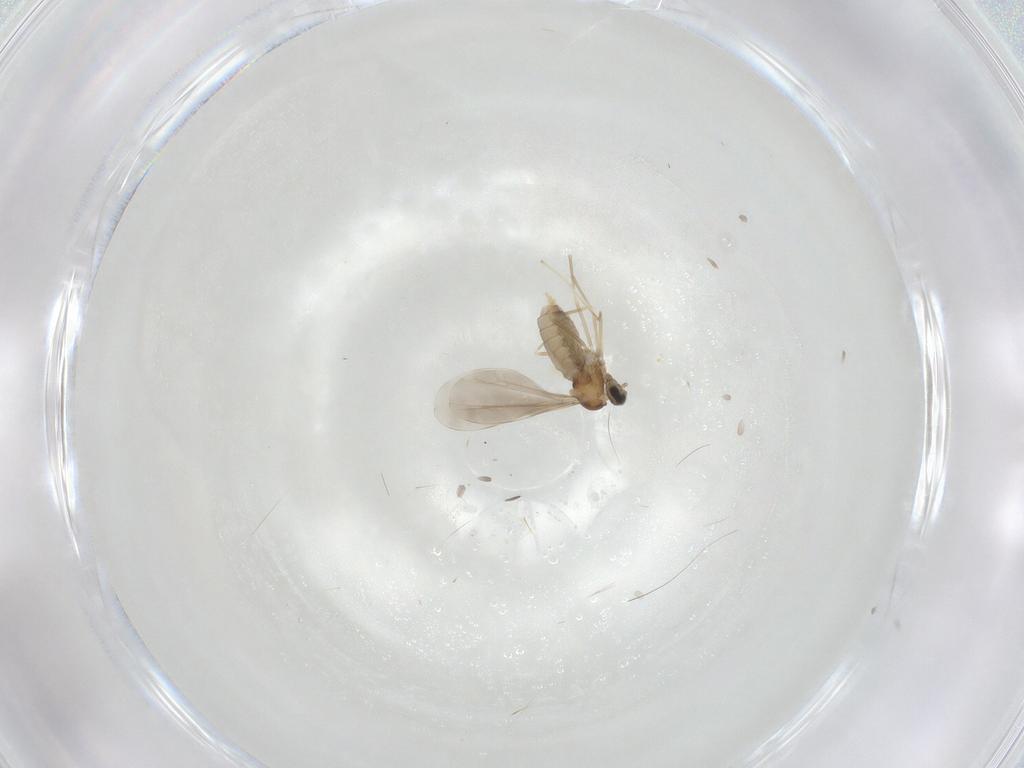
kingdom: Animalia
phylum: Arthropoda
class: Insecta
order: Diptera
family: Cecidomyiidae
